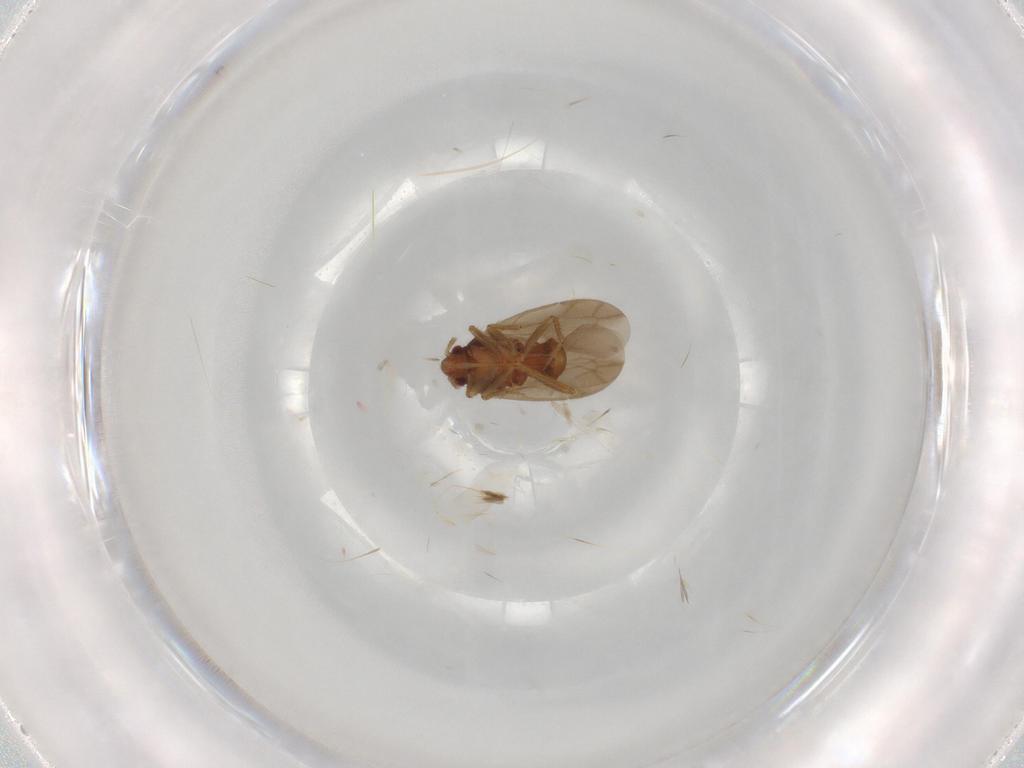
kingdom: Animalia
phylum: Arthropoda
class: Insecta
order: Hemiptera
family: Ceratocombidae
